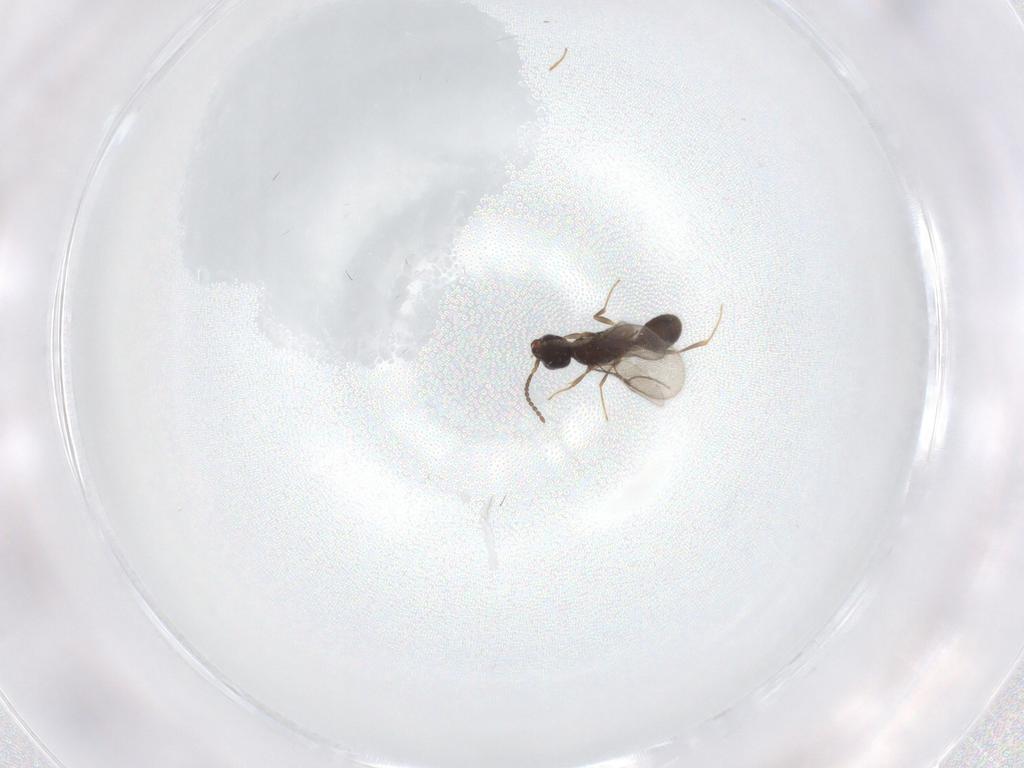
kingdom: Animalia
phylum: Arthropoda
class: Insecta
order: Hymenoptera
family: Bethylidae
